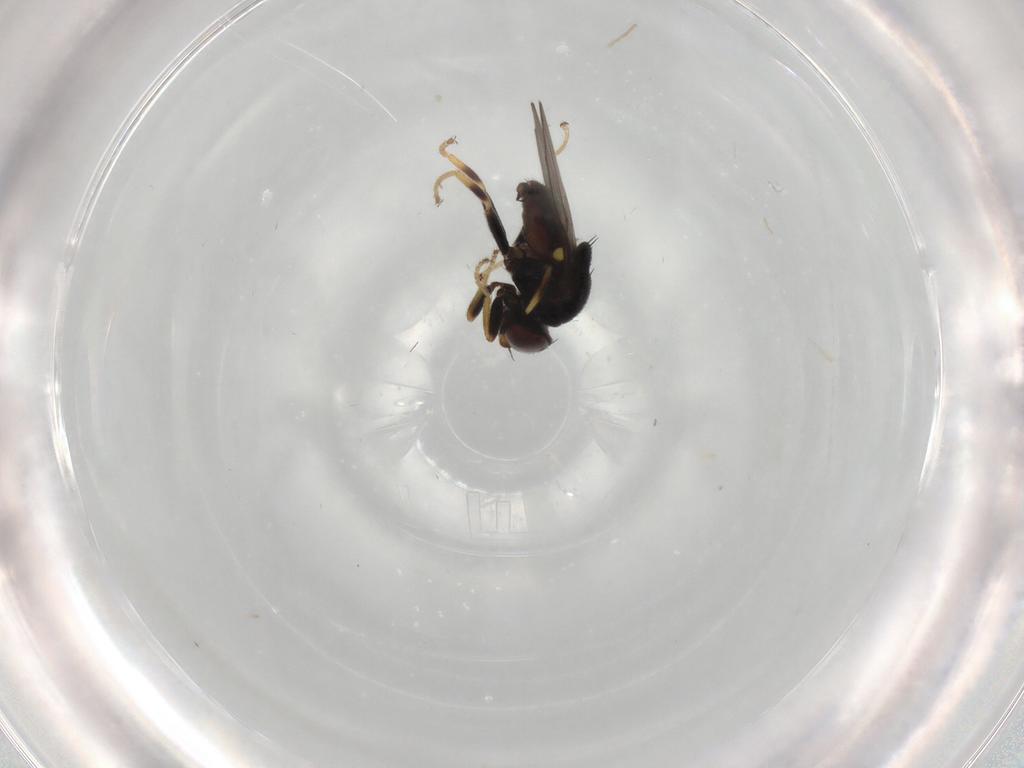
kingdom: Animalia
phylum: Arthropoda
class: Insecta
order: Diptera
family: Chloropidae
